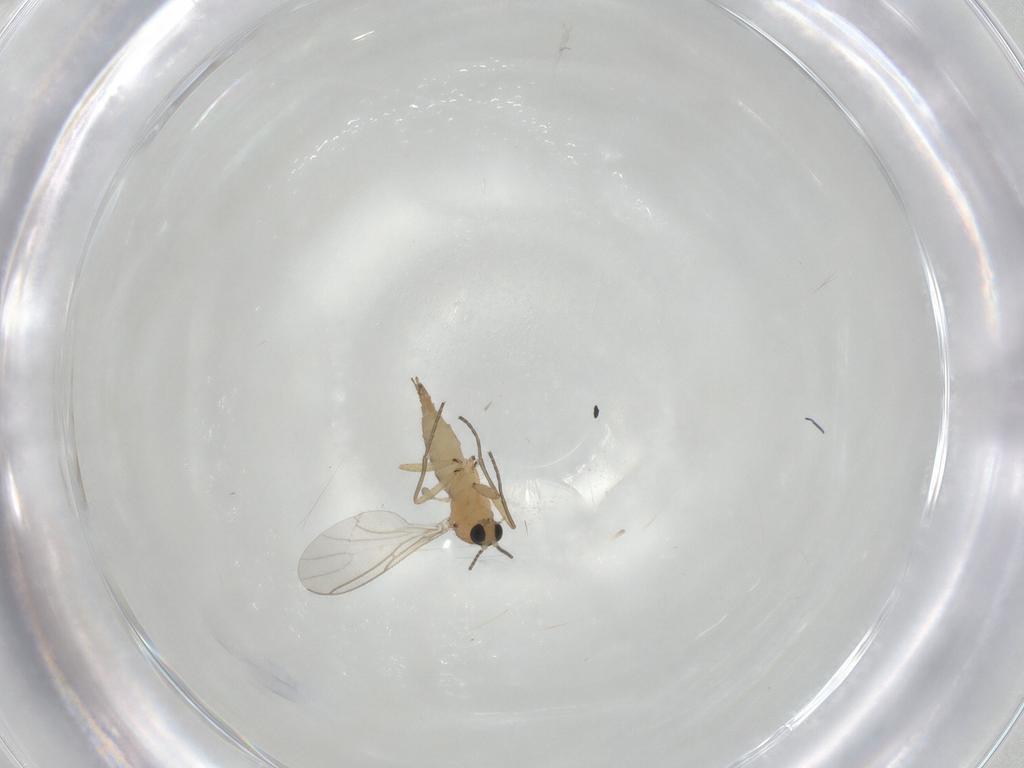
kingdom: Animalia
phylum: Arthropoda
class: Insecta
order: Diptera
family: Sciaridae
